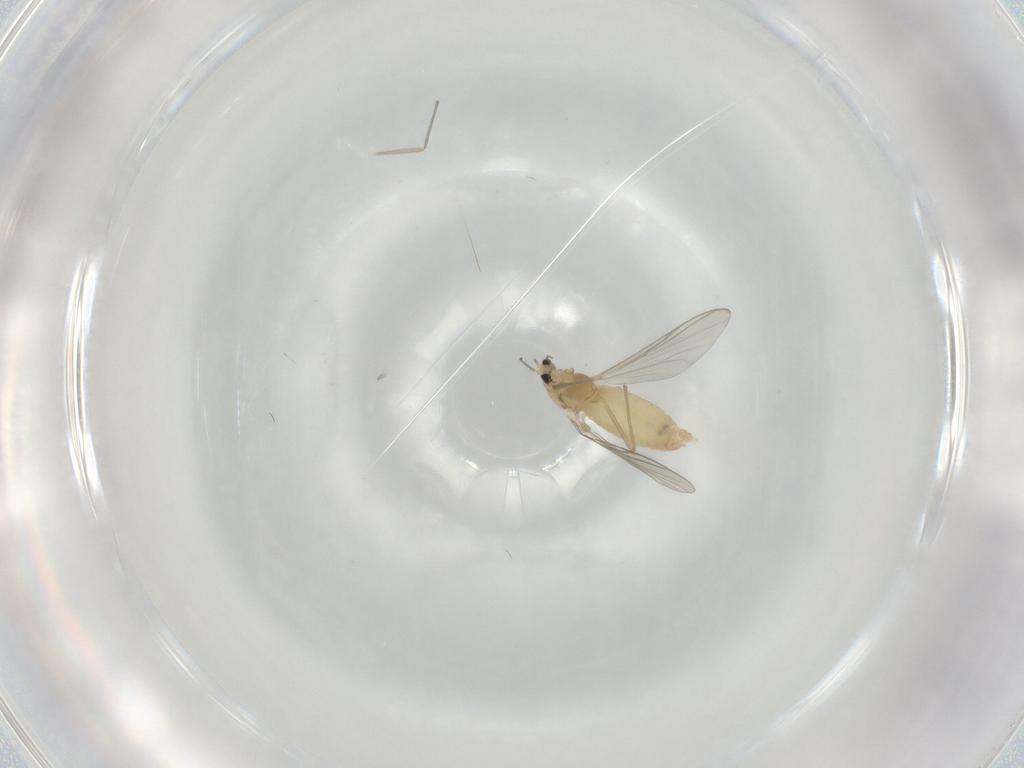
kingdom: Animalia
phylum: Arthropoda
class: Insecta
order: Diptera
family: Chironomidae
